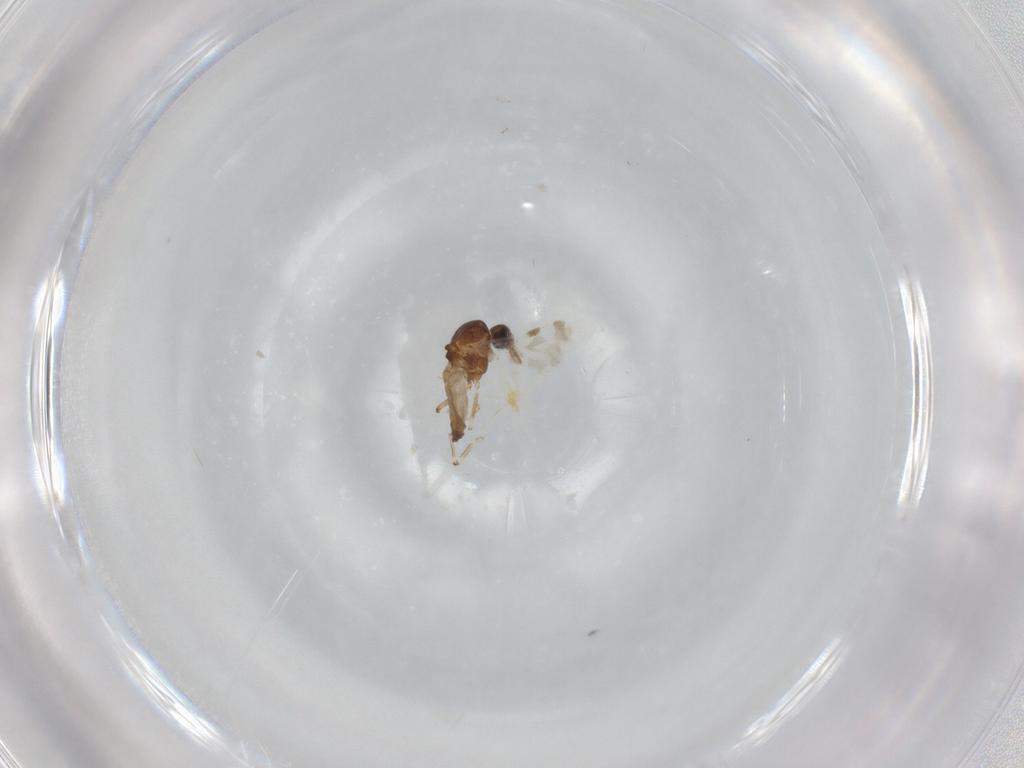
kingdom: Animalia
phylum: Arthropoda
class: Insecta
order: Diptera
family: Ceratopogonidae
